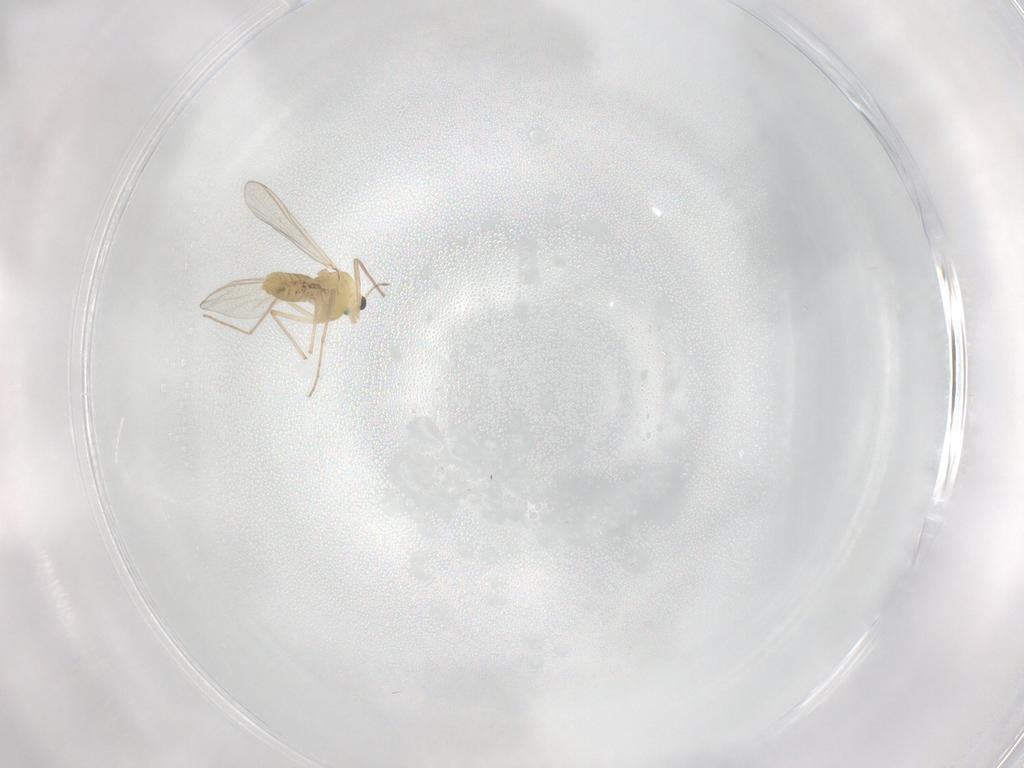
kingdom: Animalia
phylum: Arthropoda
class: Insecta
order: Diptera
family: Chironomidae
